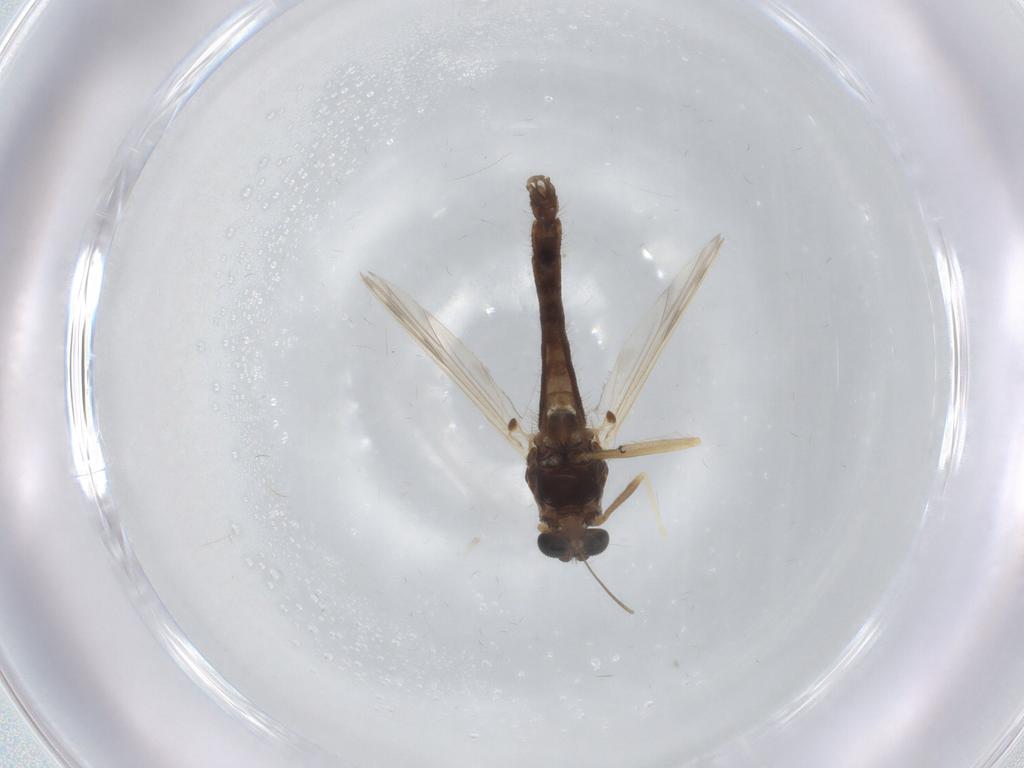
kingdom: Animalia
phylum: Arthropoda
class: Insecta
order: Diptera
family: Chironomidae
